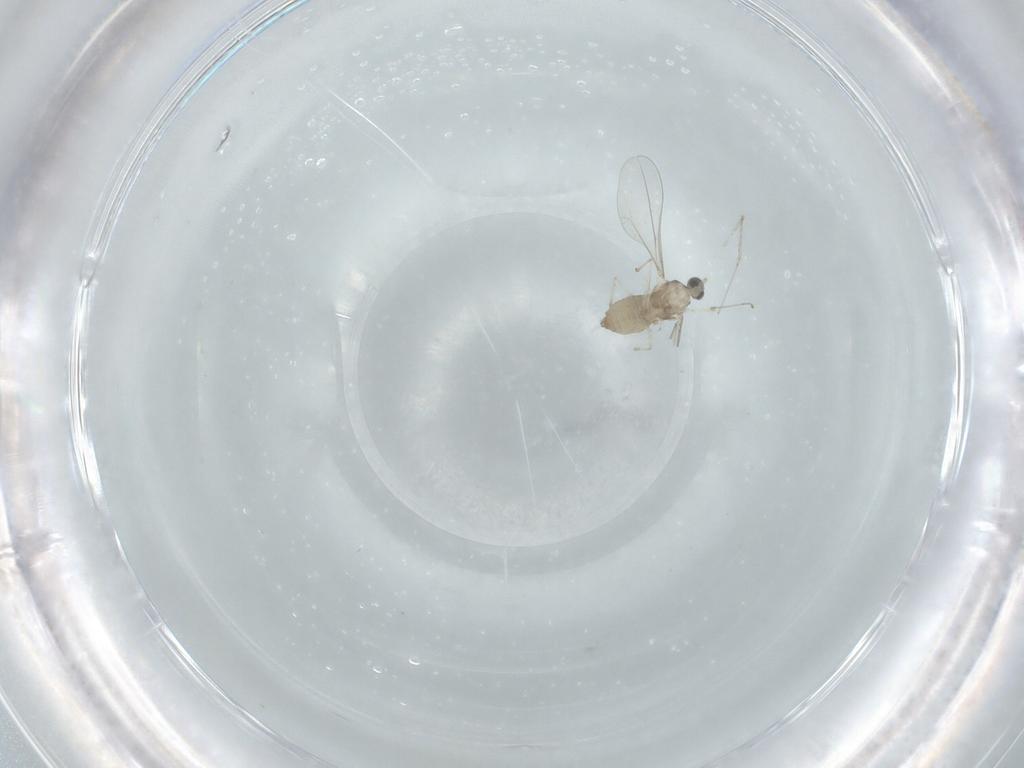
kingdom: Animalia
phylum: Arthropoda
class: Insecta
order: Diptera
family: Cecidomyiidae
